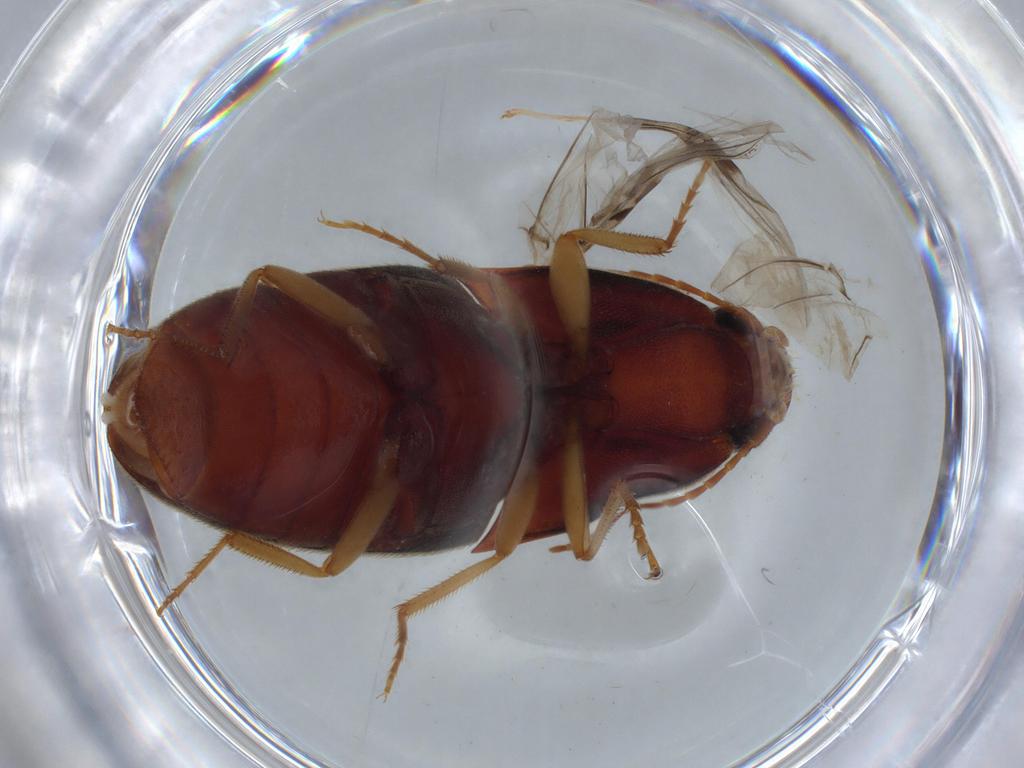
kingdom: Animalia
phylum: Arthropoda
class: Insecta
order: Coleoptera
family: Elateridae
